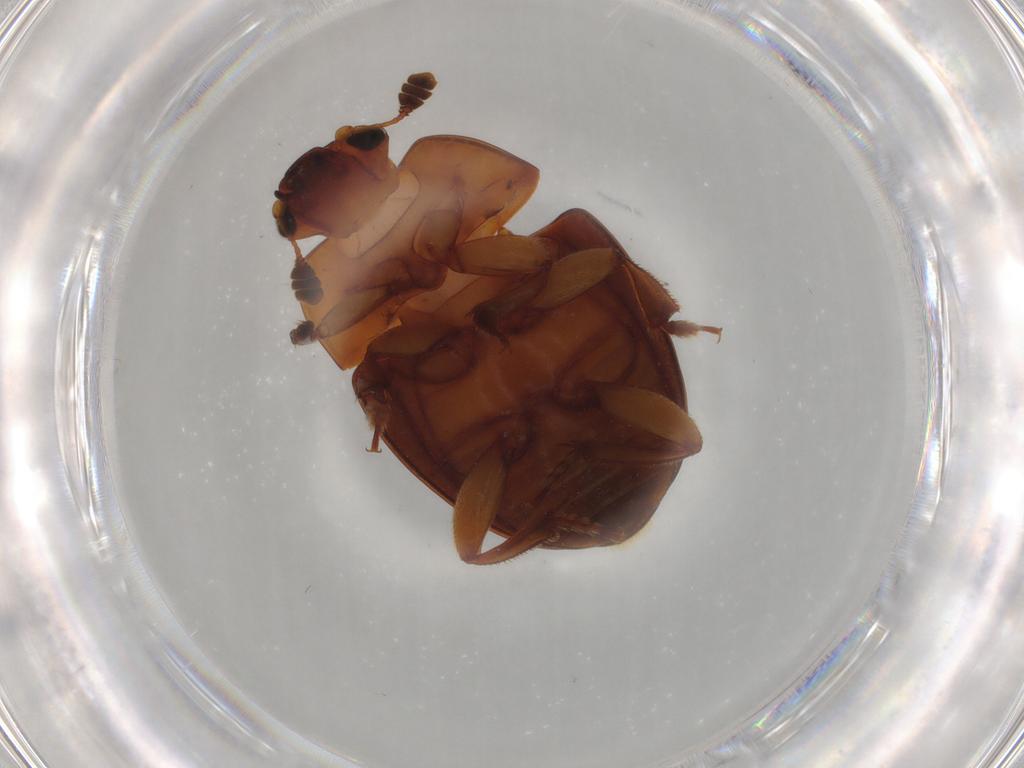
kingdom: Animalia
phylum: Arthropoda
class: Insecta
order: Coleoptera
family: Nitidulidae
